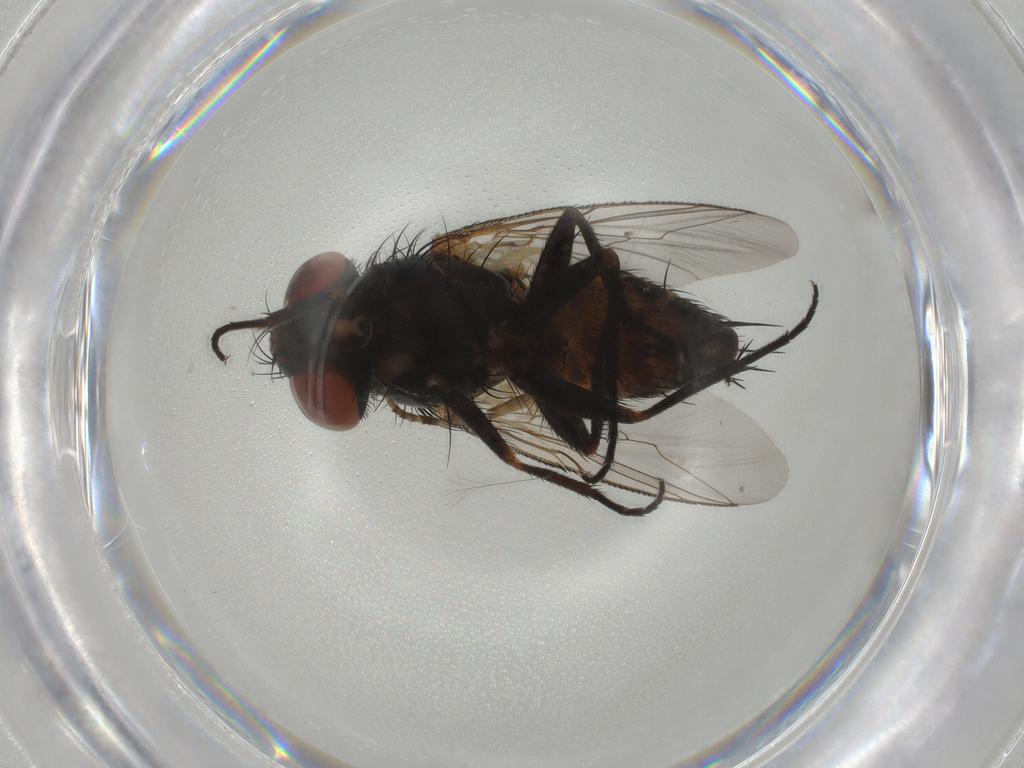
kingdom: Animalia
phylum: Arthropoda
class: Insecta
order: Diptera
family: Sarcophagidae
